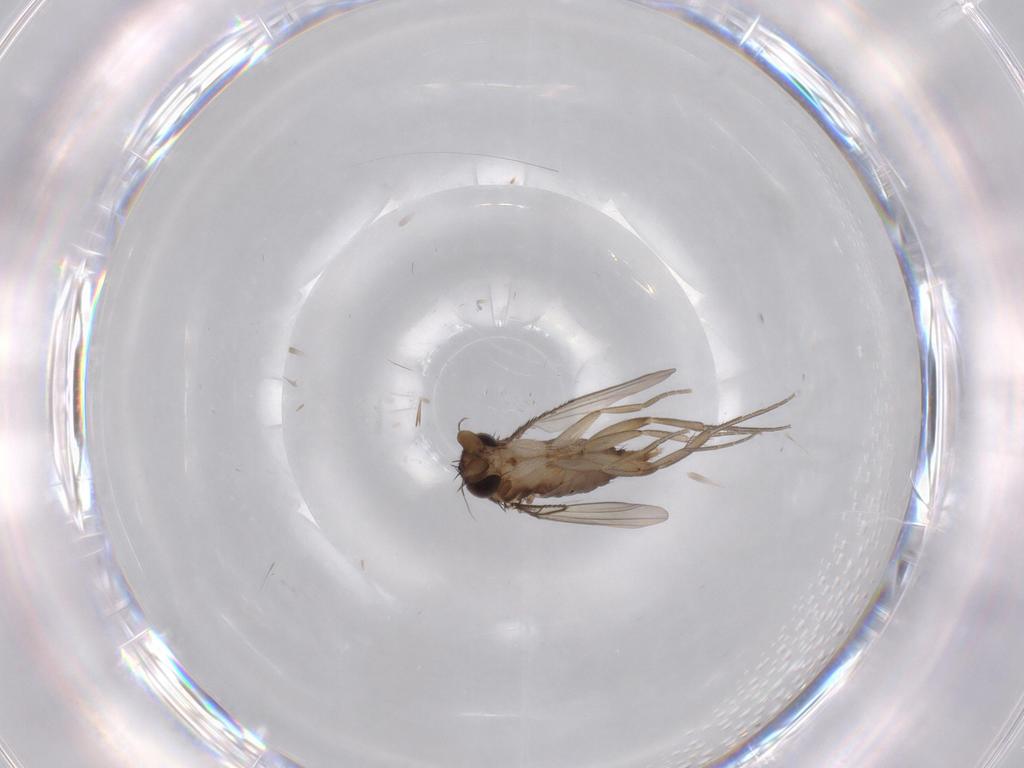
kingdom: Animalia
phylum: Arthropoda
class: Insecta
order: Diptera
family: Phoridae
